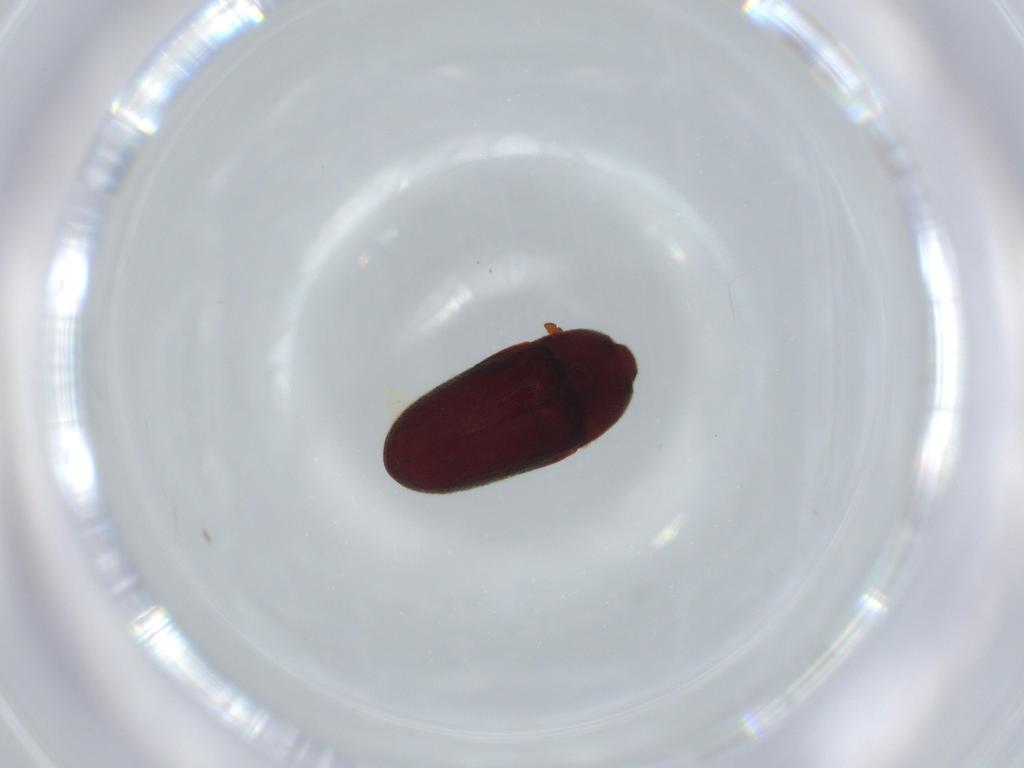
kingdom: Animalia
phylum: Arthropoda
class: Insecta
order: Coleoptera
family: Throscidae
